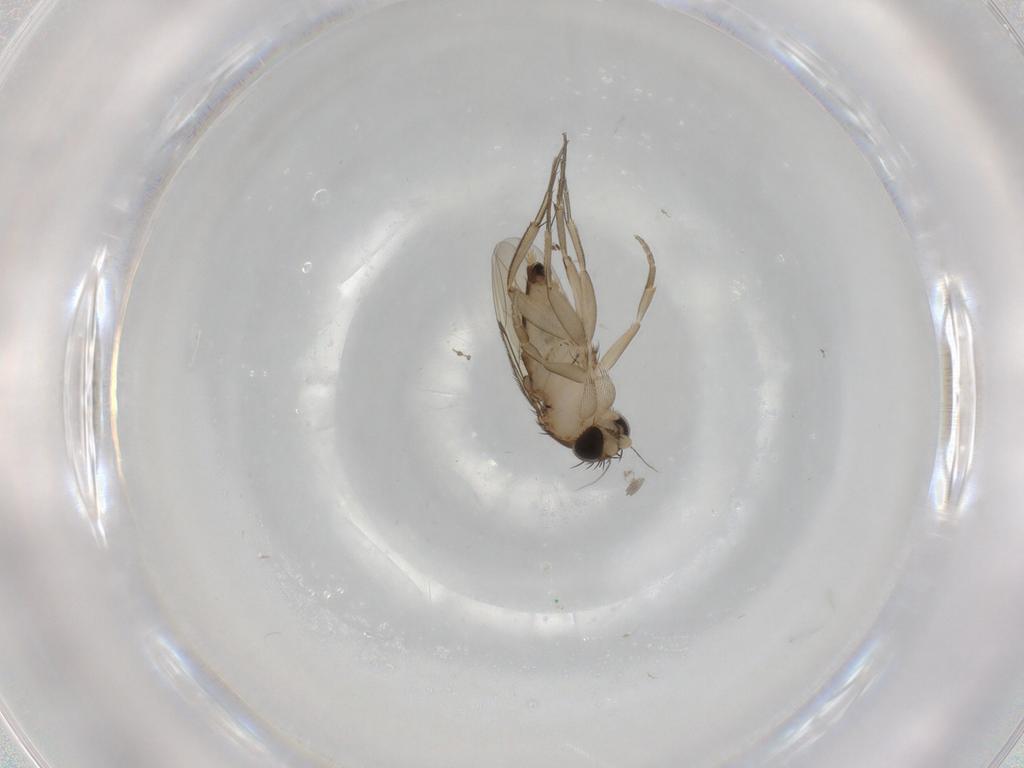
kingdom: Animalia
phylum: Arthropoda
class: Insecta
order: Diptera
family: Phoridae
